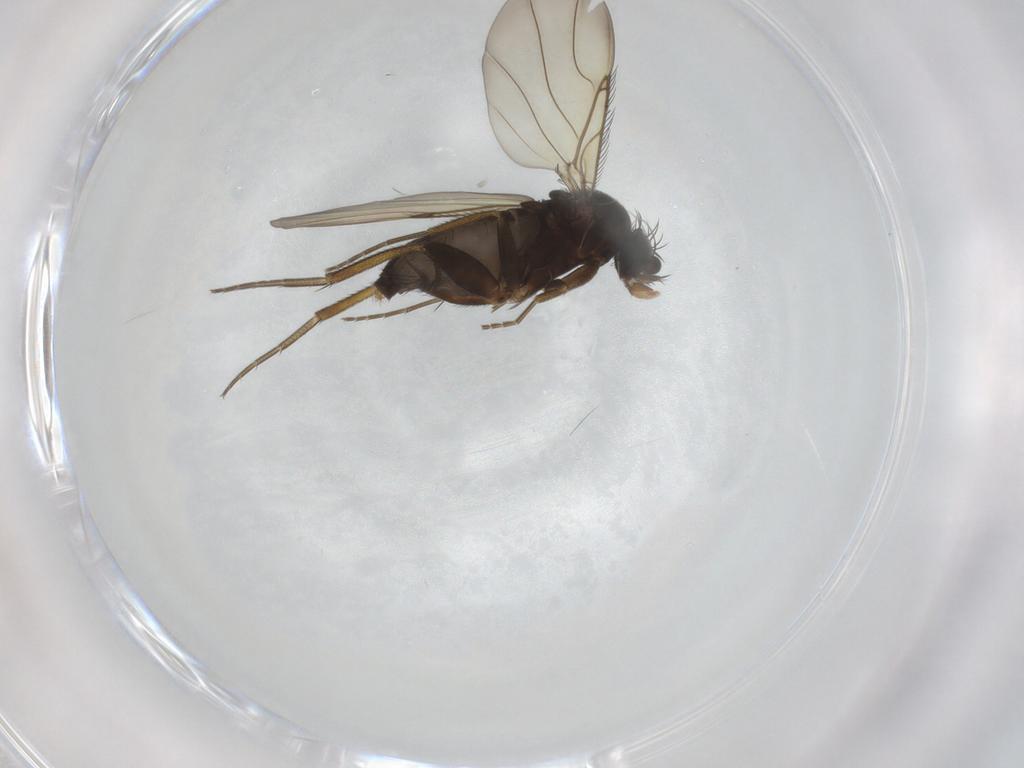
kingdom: Animalia
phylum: Arthropoda
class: Insecta
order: Diptera
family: Phoridae
